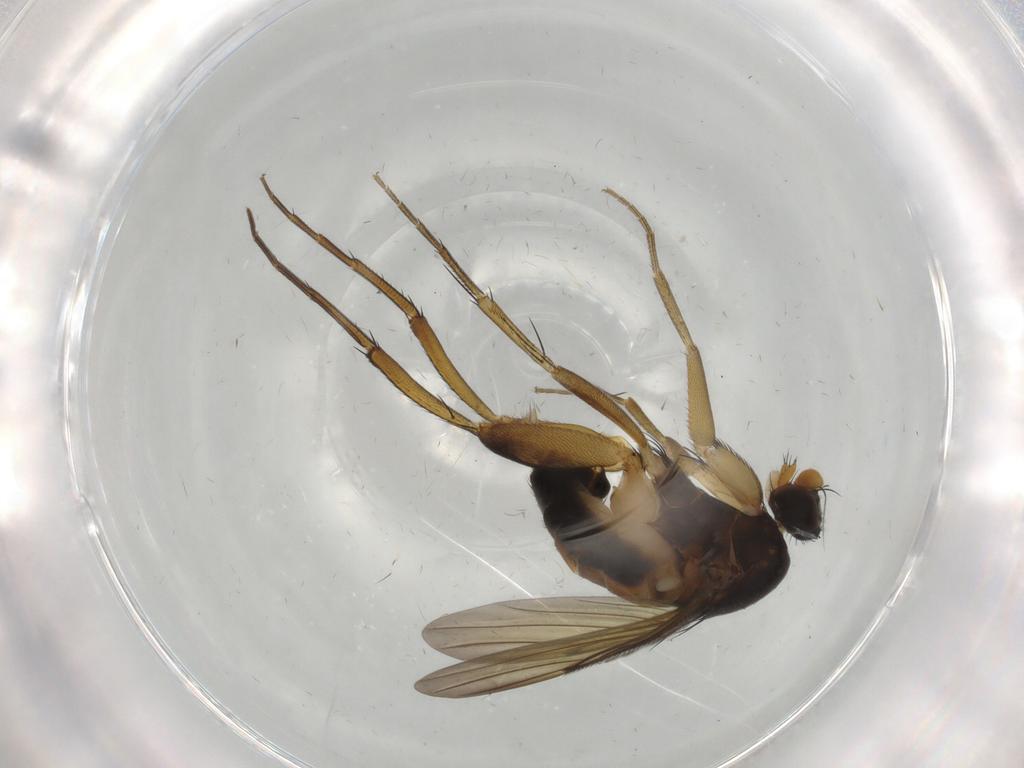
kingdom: Animalia
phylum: Arthropoda
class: Insecta
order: Diptera
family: Phoridae
